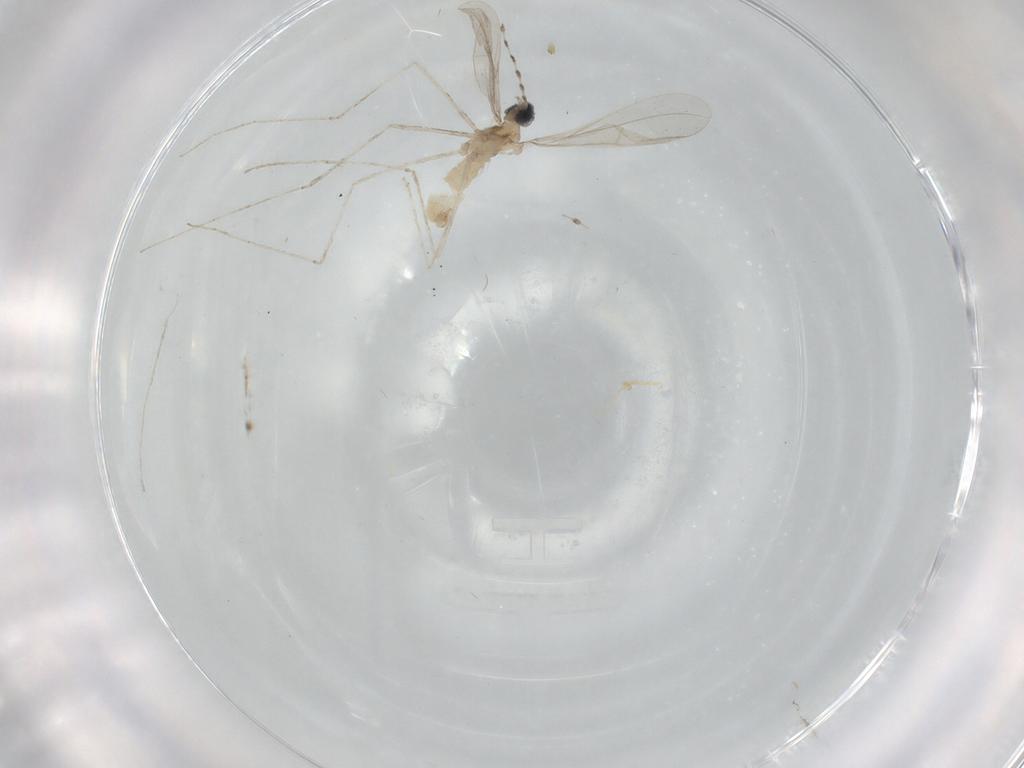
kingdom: Animalia
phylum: Arthropoda
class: Insecta
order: Diptera
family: Cecidomyiidae
